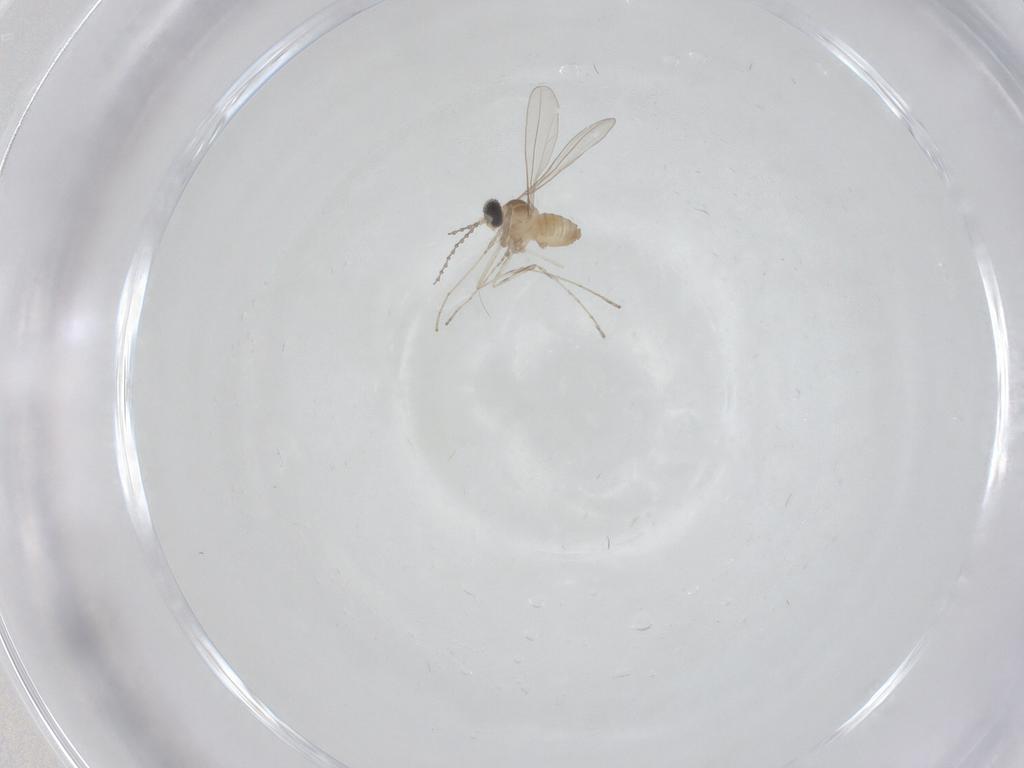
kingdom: Animalia
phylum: Arthropoda
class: Insecta
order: Diptera
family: Cecidomyiidae
